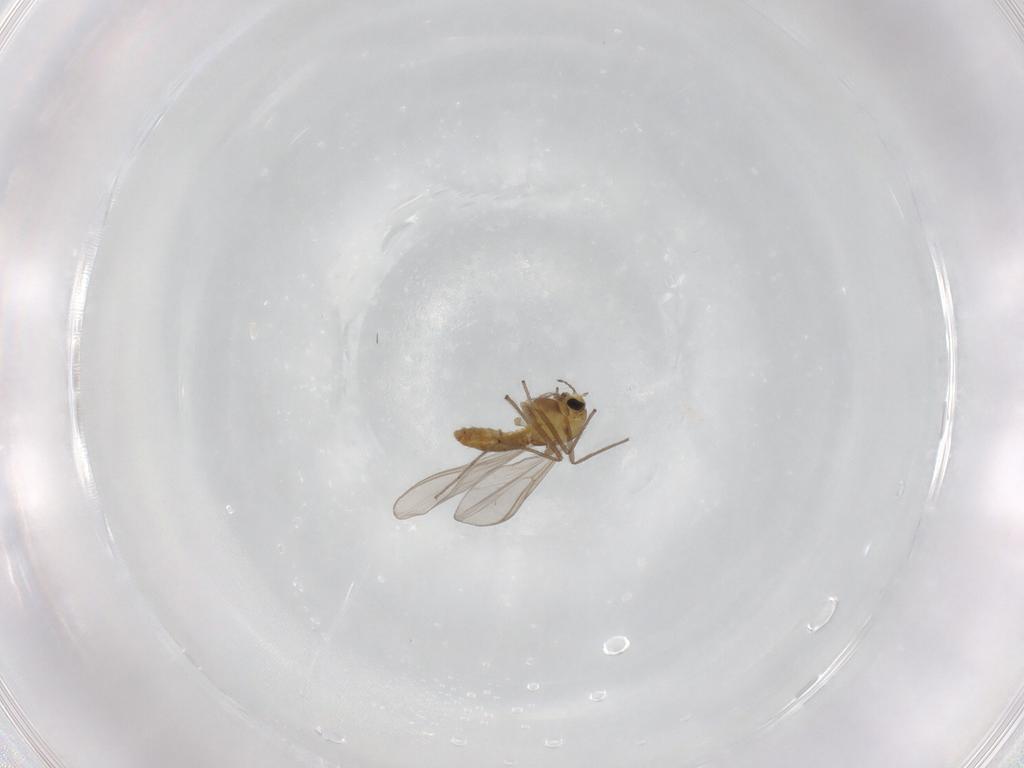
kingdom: Animalia
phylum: Arthropoda
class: Insecta
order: Diptera
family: Chironomidae
